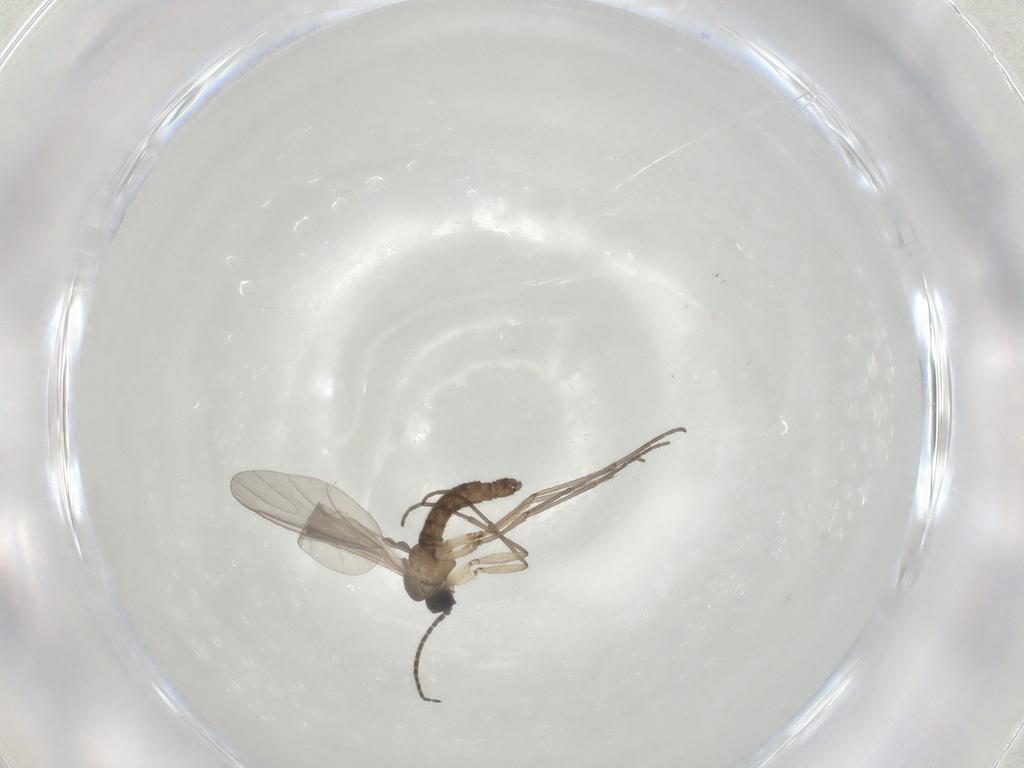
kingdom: Animalia
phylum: Arthropoda
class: Insecta
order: Diptera
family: Sciaridae
